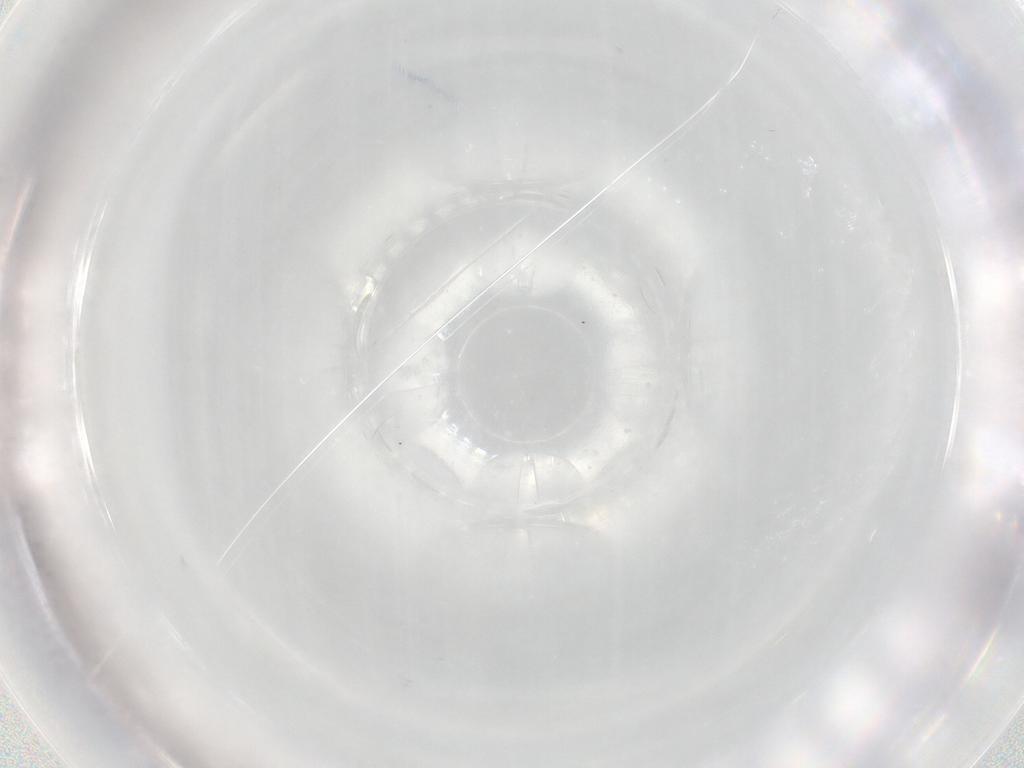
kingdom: Animalia
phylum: Arthropoda
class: Arachnida
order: Trombidiformes
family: Rhagidiidae
